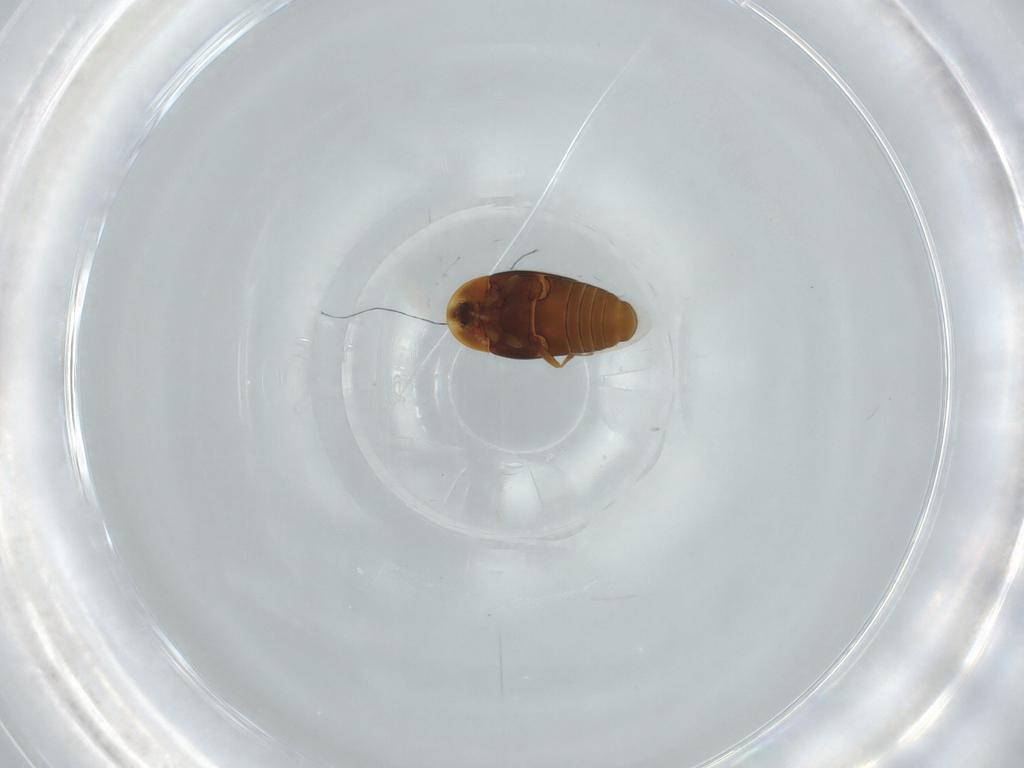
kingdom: Animalia
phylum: Arthropoda
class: Insecta
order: Coleoptera
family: Corylophidae
